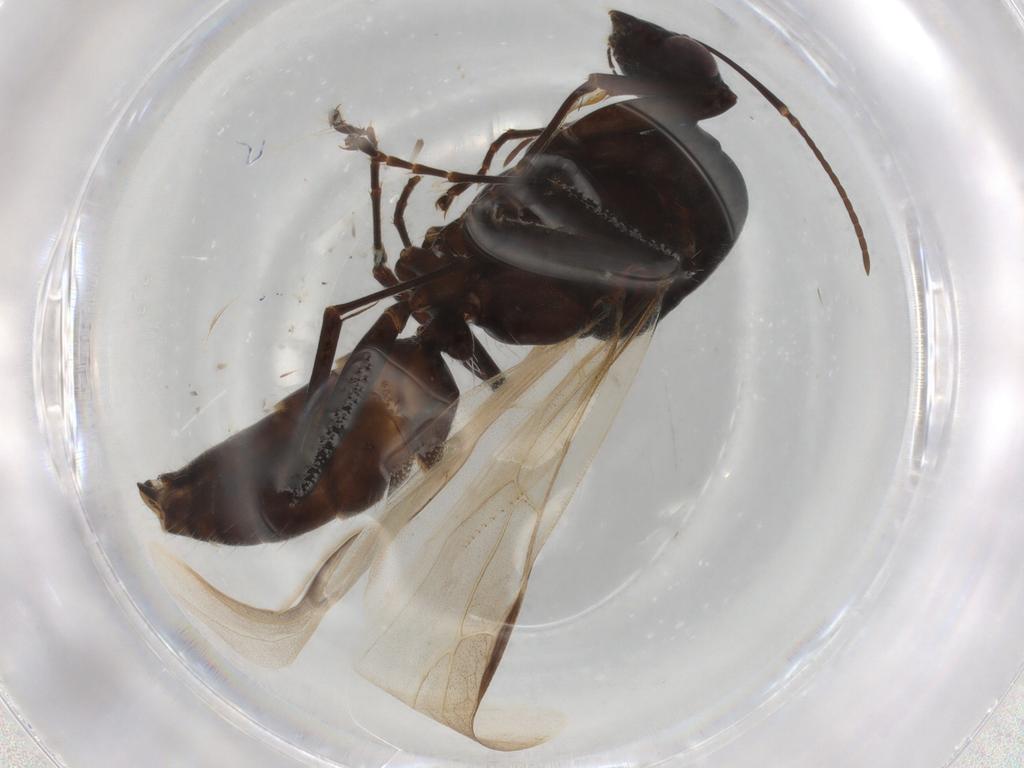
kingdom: Animalia
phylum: Arthropoda
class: Insecta
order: Hymenoptera
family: Formicidae
